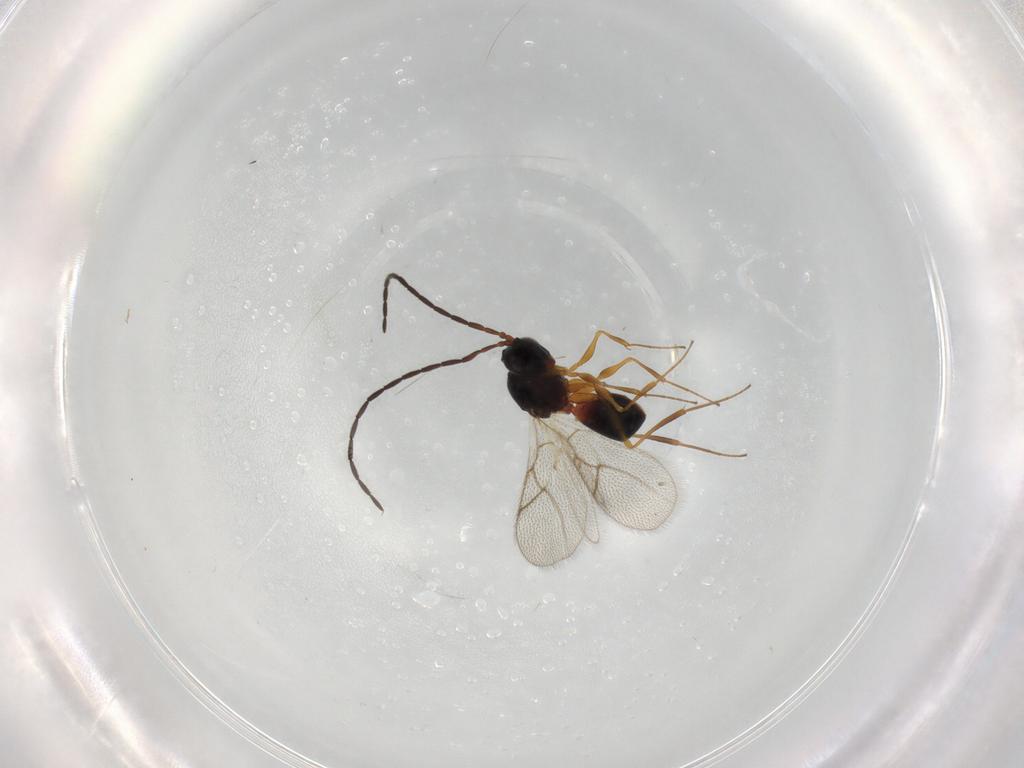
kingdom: Animalia
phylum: Arthropoda
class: Insecta
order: Hymenoptera
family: Figitidae
